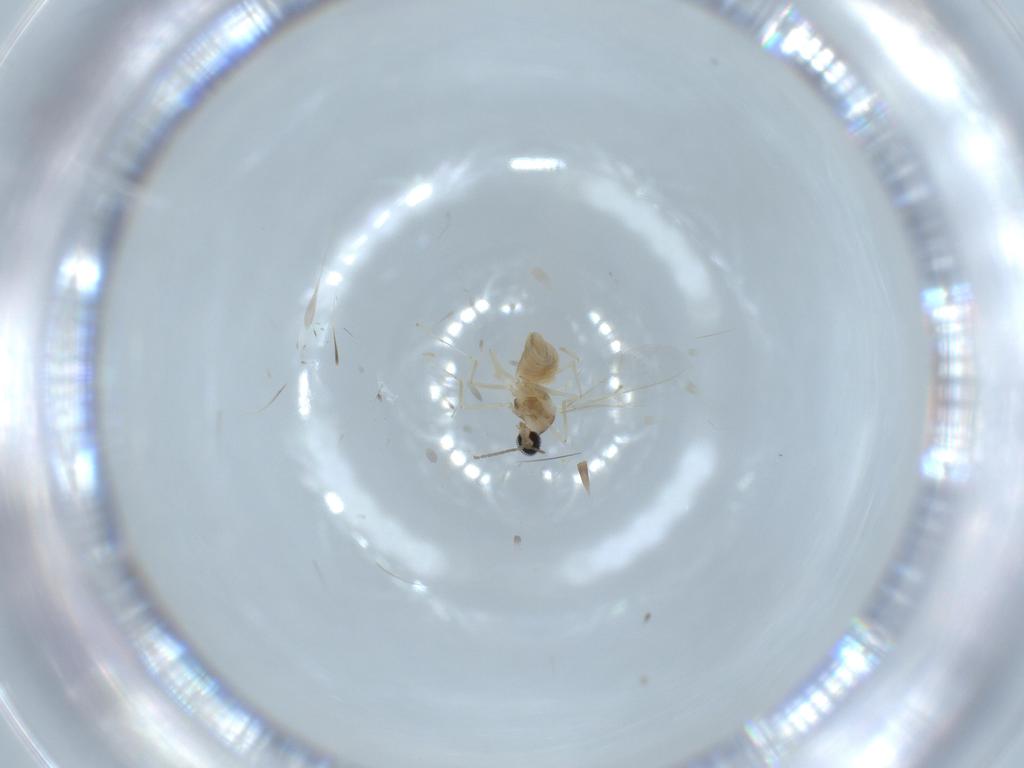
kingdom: Animalia
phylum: Arthropoda
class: Insecta
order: Diptera
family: Cecidomyiidae
